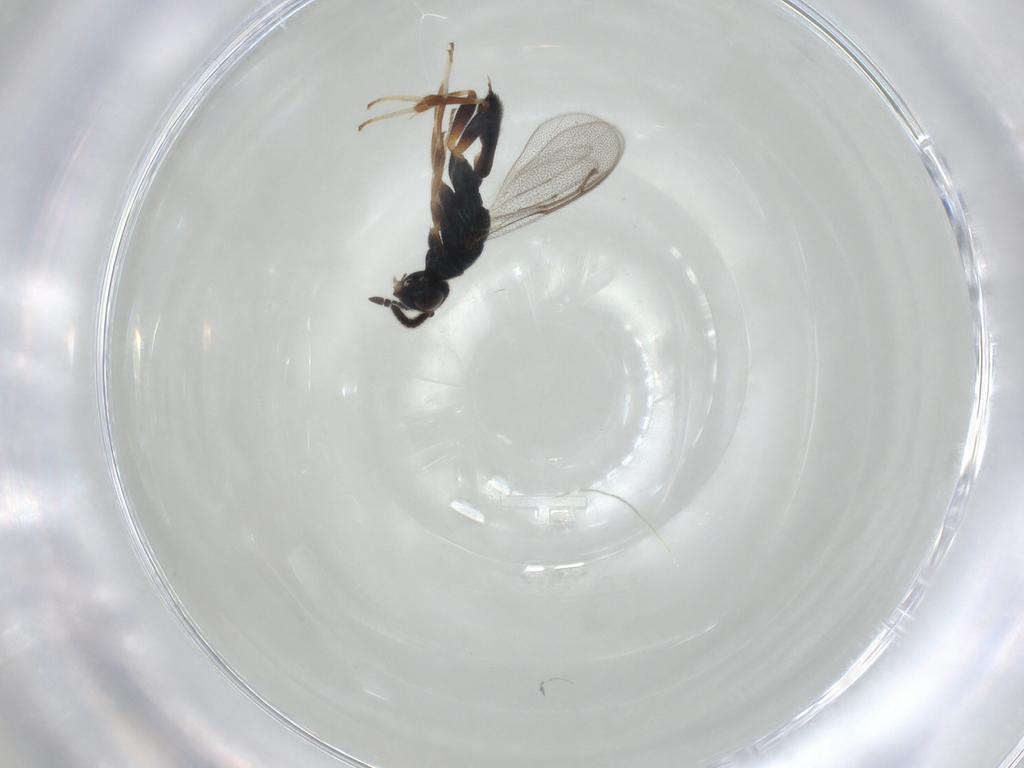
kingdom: Animalia
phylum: Arthropoda
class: Insecta
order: Hymenoptera
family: Cleonyminae
